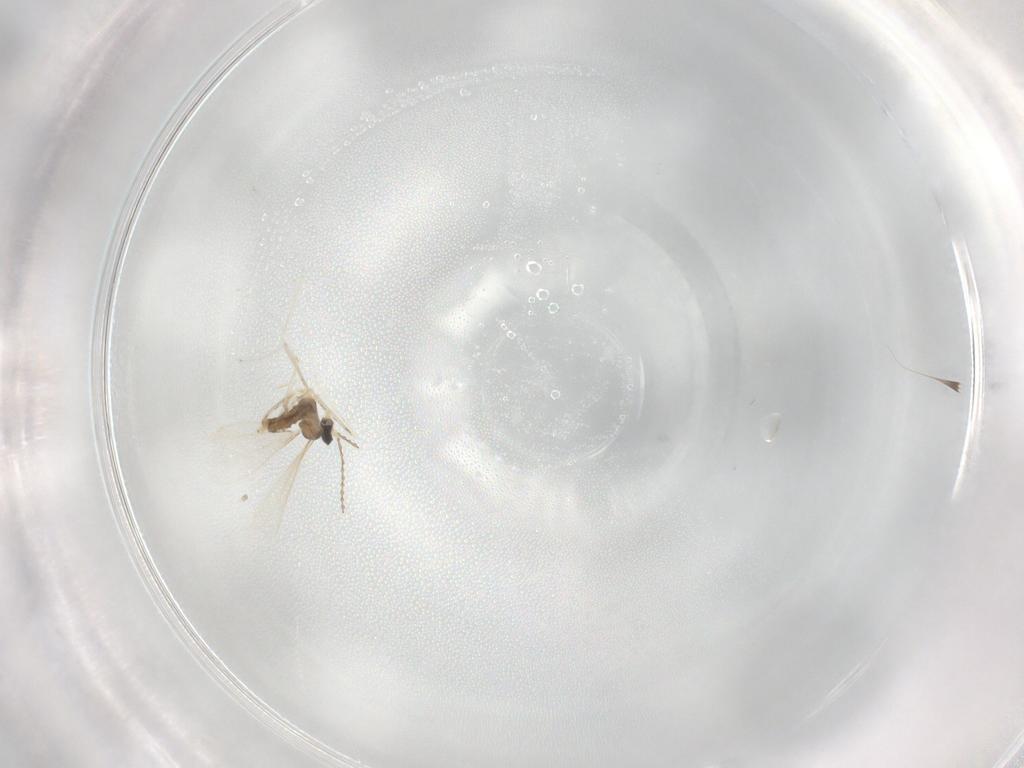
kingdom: Animalia
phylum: Arthropoda
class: Insecta
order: Diptera
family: Cecidomyiidae
